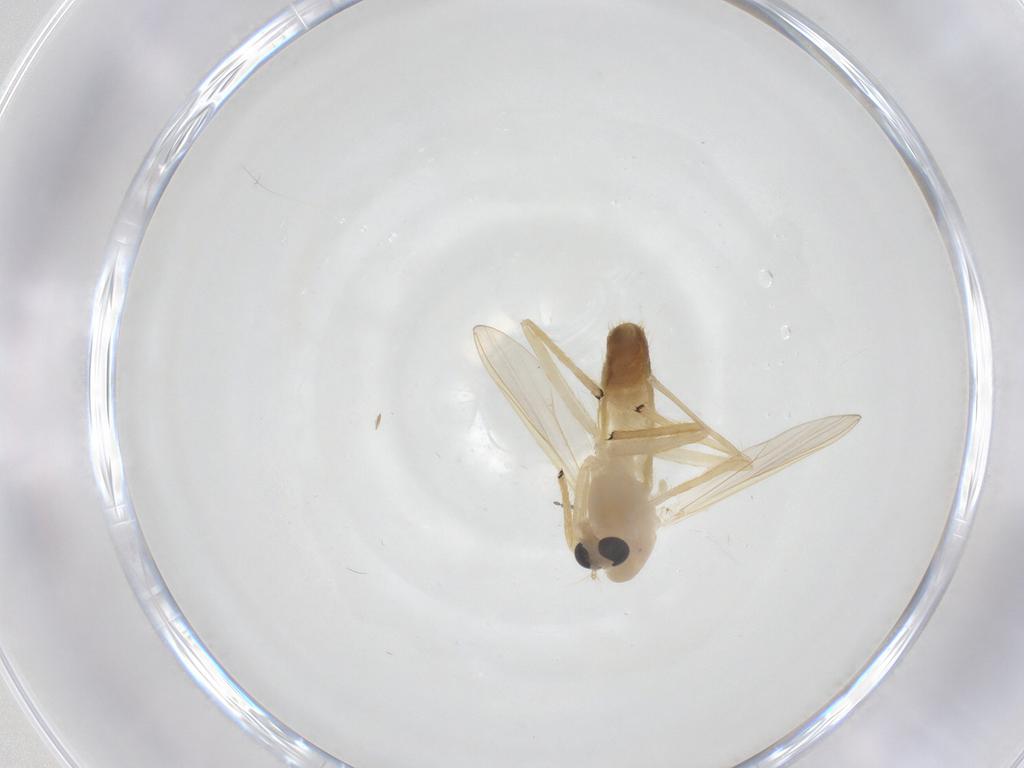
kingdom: Animalia
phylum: Arthropoda
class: Insecta
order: Diptera
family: Chironomidae
